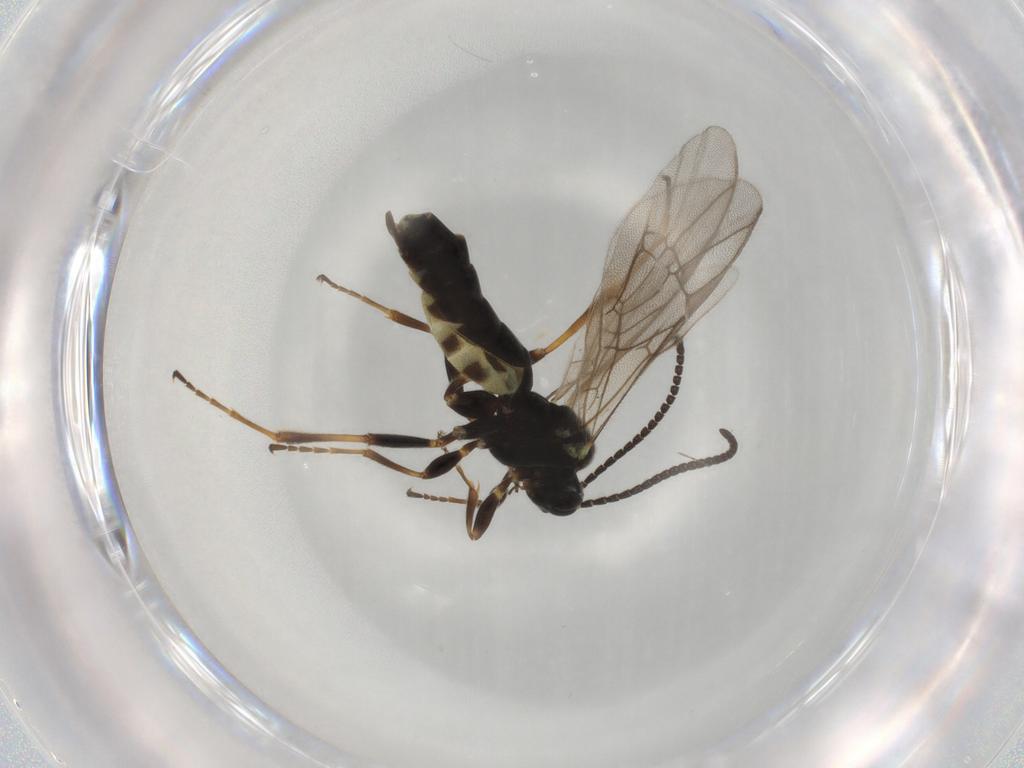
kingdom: Animalia
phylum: Arthropoda
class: Insecta
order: Hymenoptera
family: Ichneumonidae
